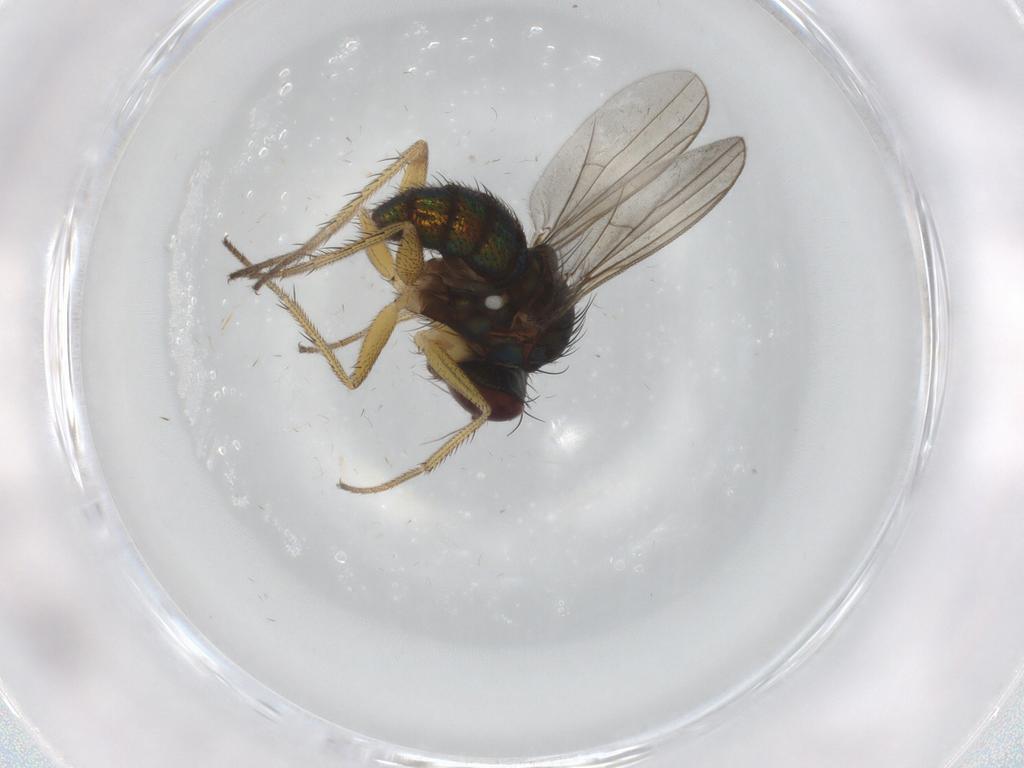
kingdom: Animalia
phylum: Arthropoda
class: Insecta
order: Diptera
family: Dolichopodidae
